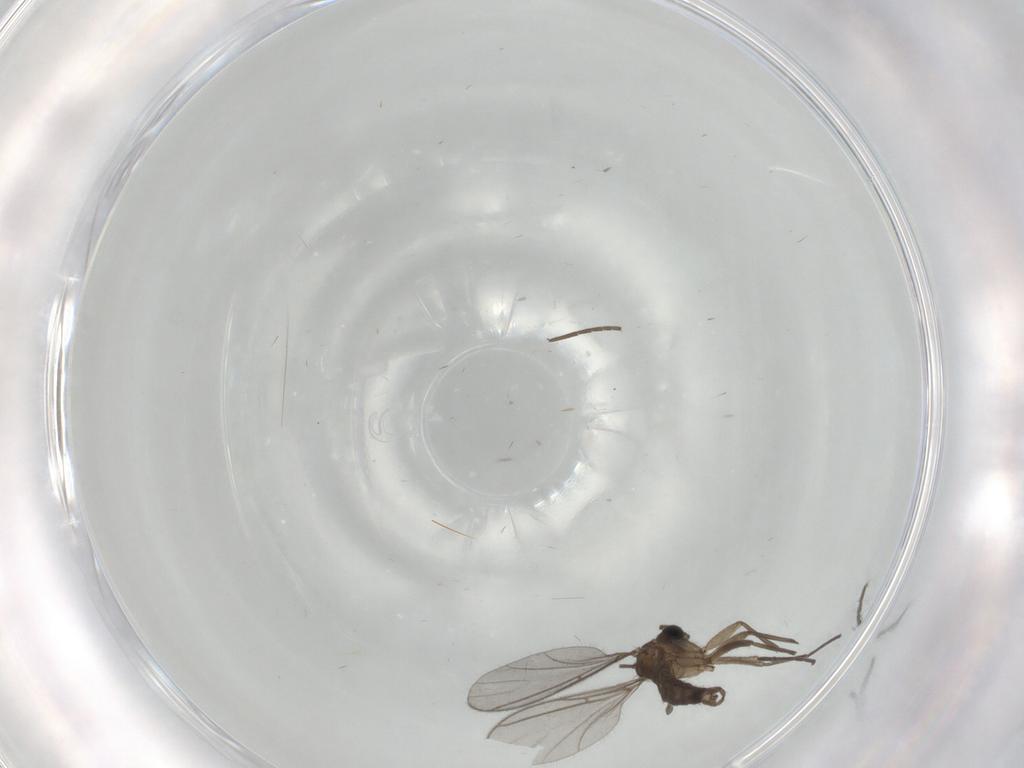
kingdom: Animalia
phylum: Arthropoda
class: Insecta
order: Diptera
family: Sciaridae
